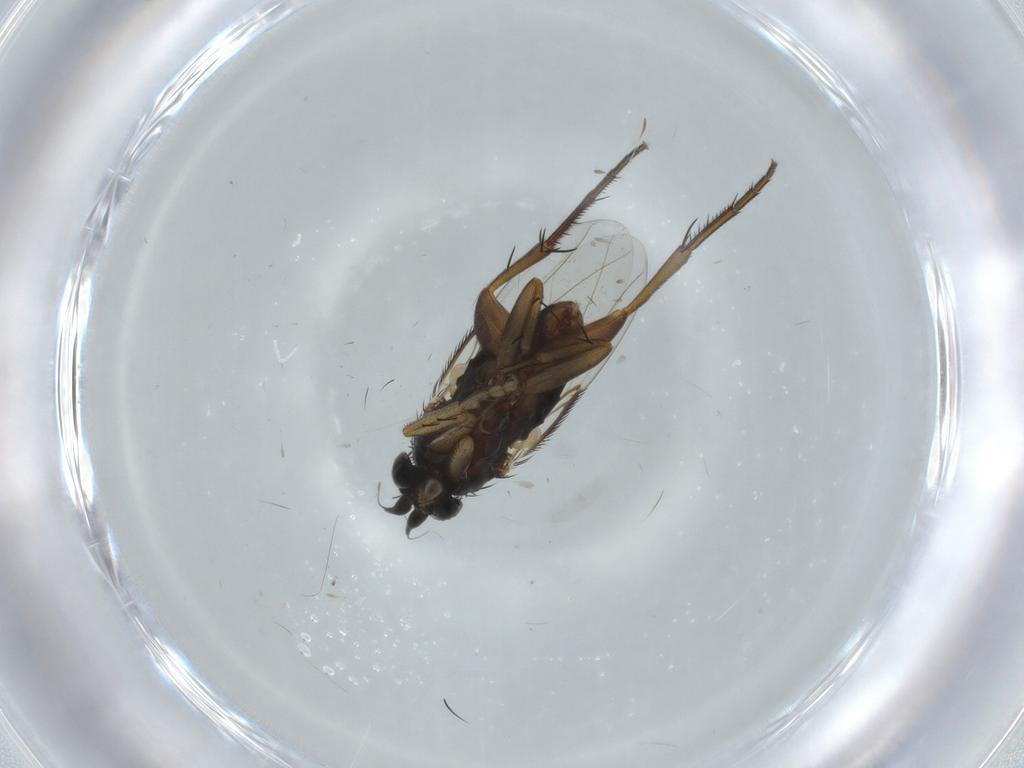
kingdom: Animalia
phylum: Arthropoda
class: Insecta
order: Diptera
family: Phoridae
